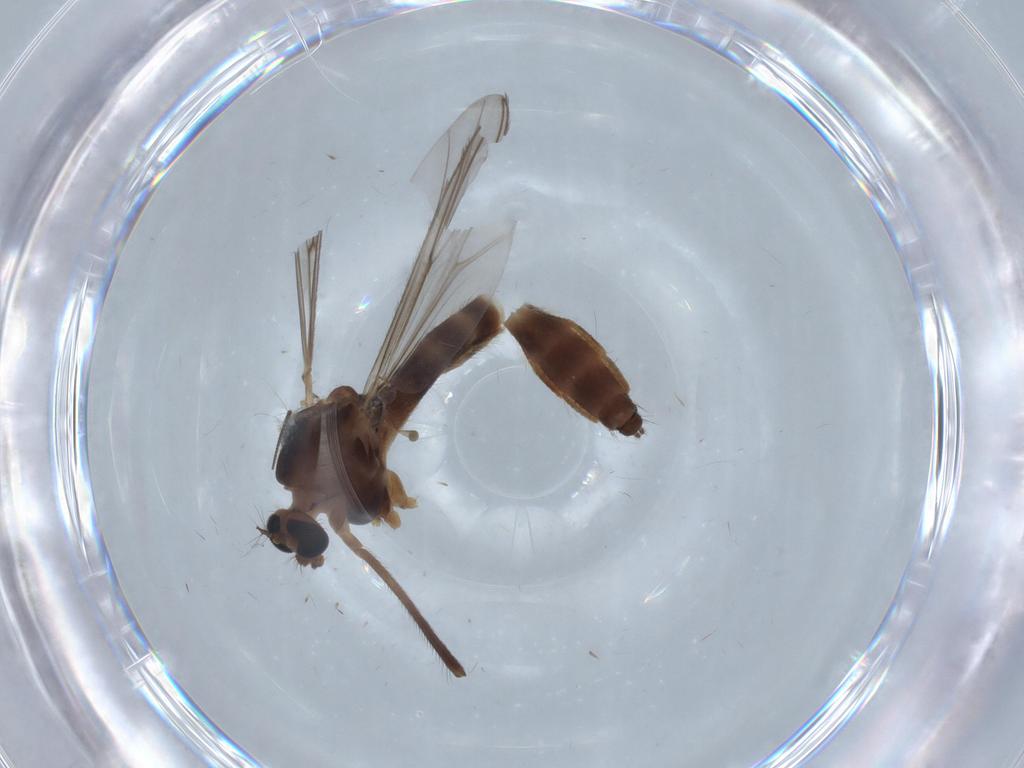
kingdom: Animalia
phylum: Arthropoda
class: Insecta
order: Diptera
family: Chironomidae
